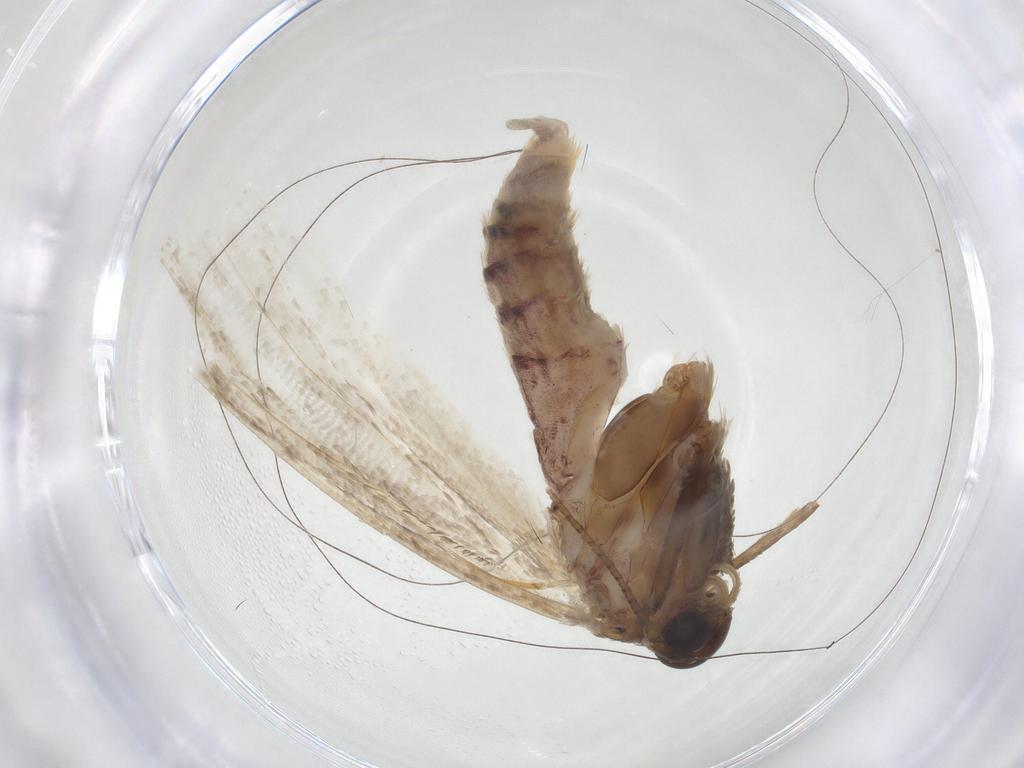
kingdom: Animalia
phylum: Arthropoda
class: Insecta
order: Lepidoptera
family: Blastobasidae
